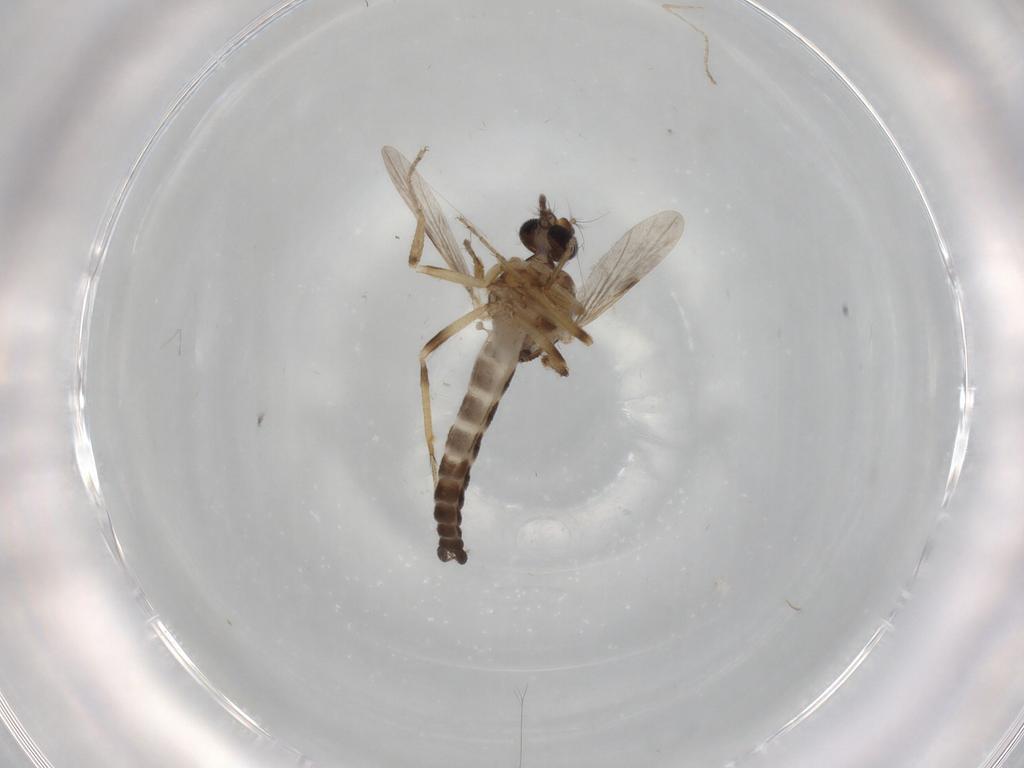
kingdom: Animalia
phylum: Arthropoda
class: Insecta
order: Diptera
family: Ceratopogonidae
